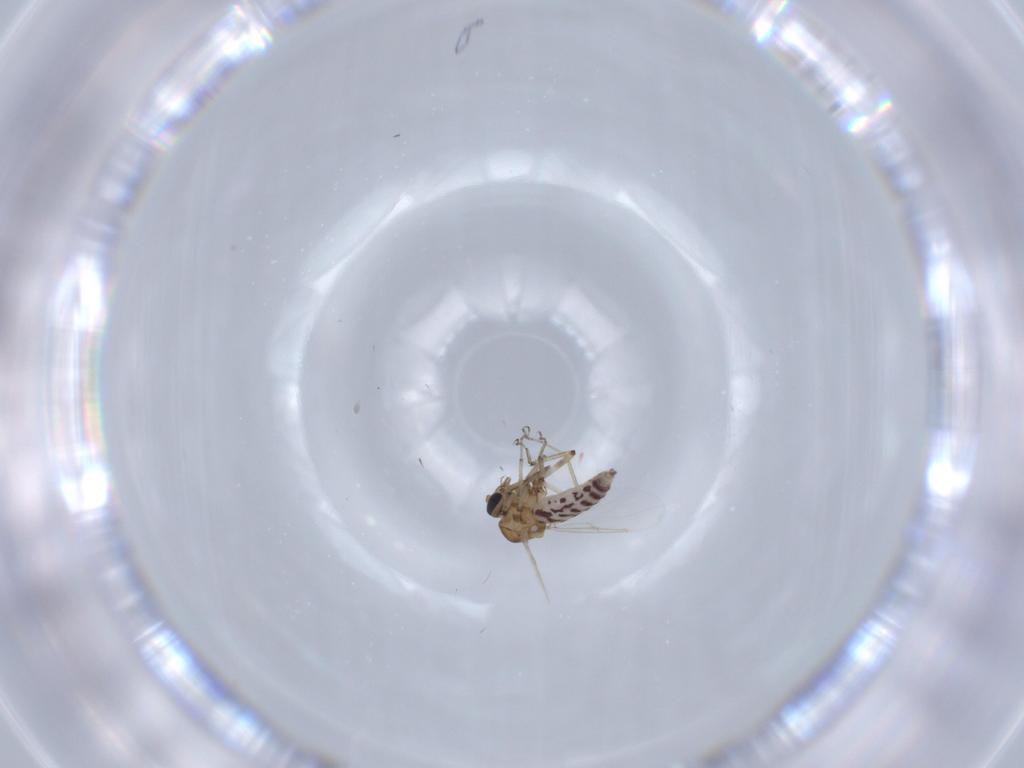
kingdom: Animalia
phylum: Arthropoda
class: Insecta
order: Diptera
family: Ceratopogonidae
